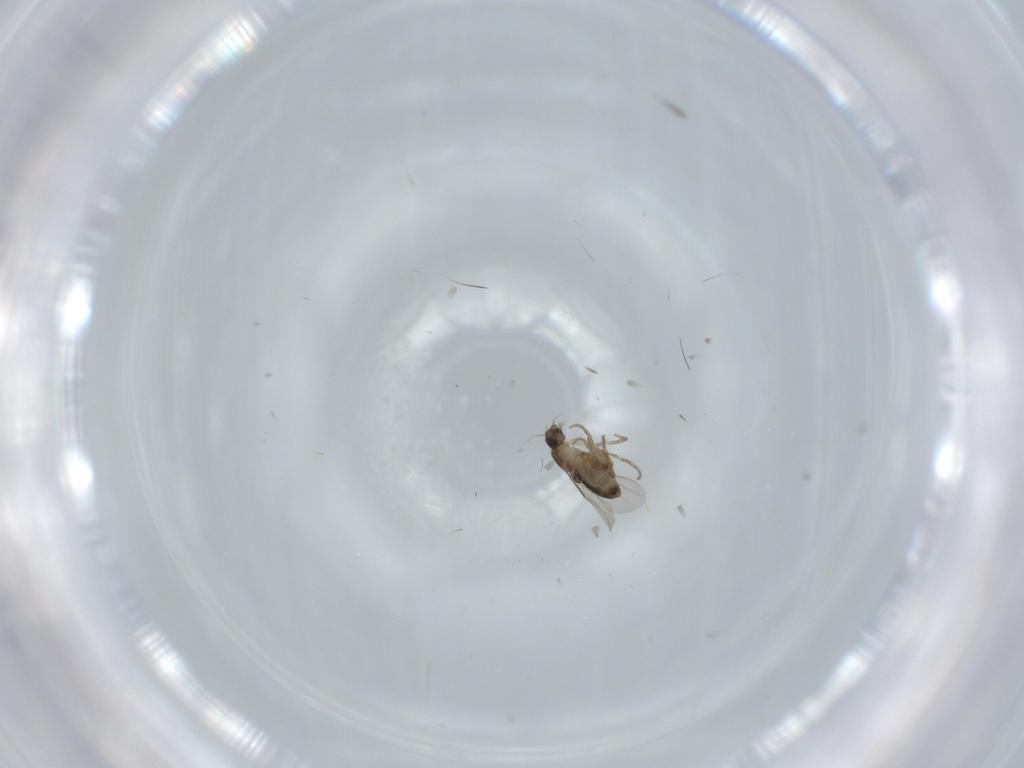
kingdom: Animalia
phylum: Arthropoda
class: Insecta
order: Diptera
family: Phoridae
